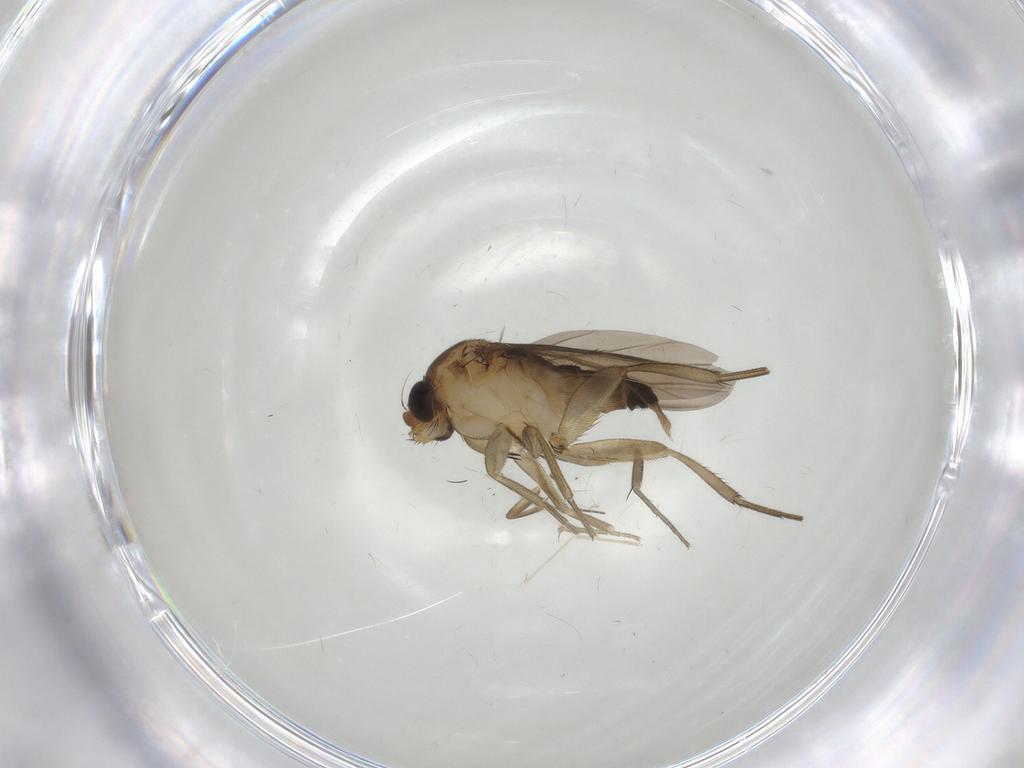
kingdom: Animalia
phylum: Arthropoda
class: Insecta
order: Diptera
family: Phoridae
